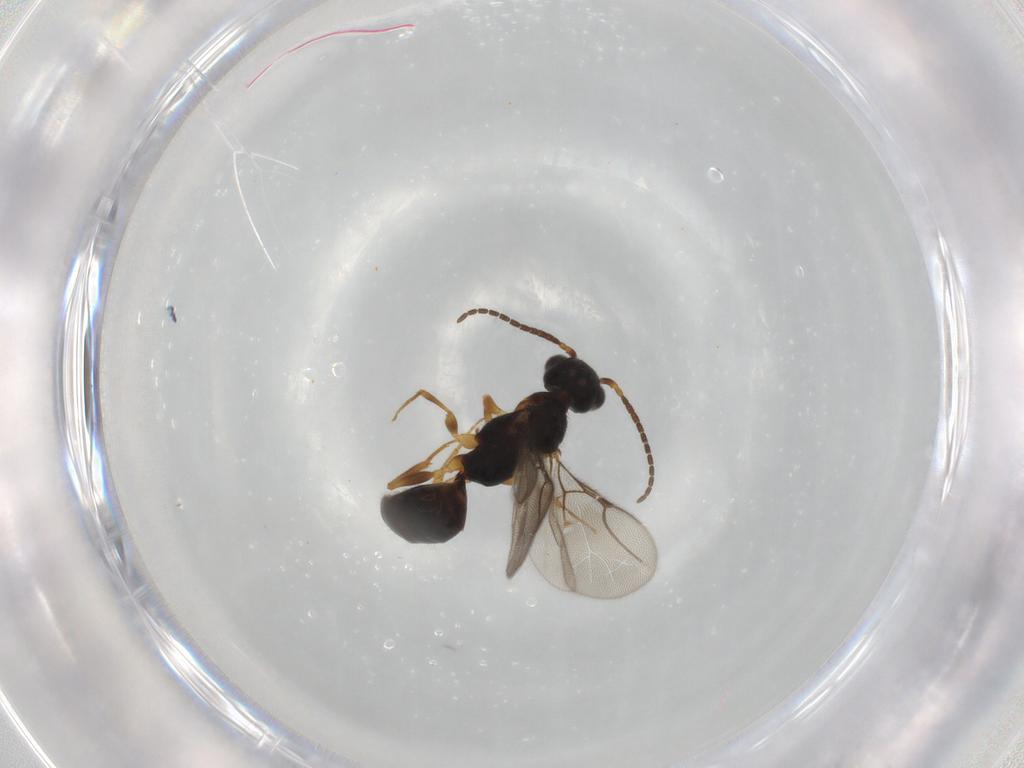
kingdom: Animalia
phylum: Arthropoda
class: Insecta
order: Hymenoptera
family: Bethylidae
